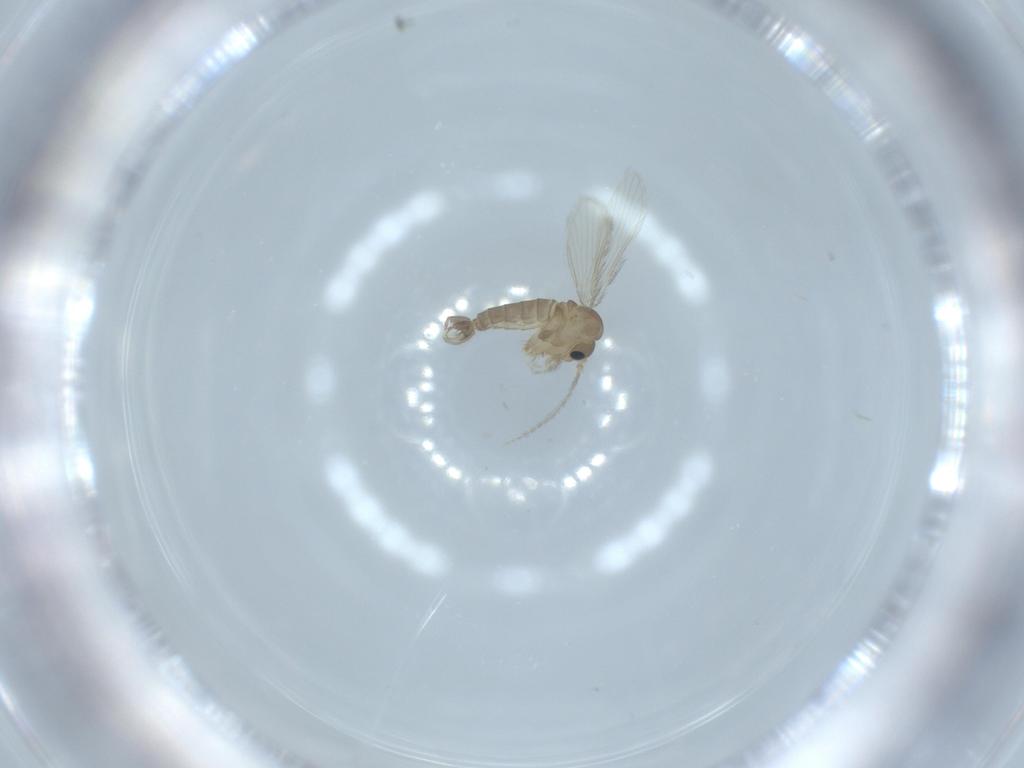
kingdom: Animalia
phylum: Arthropoda
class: Insecta
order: Diptera
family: Psychodidae
